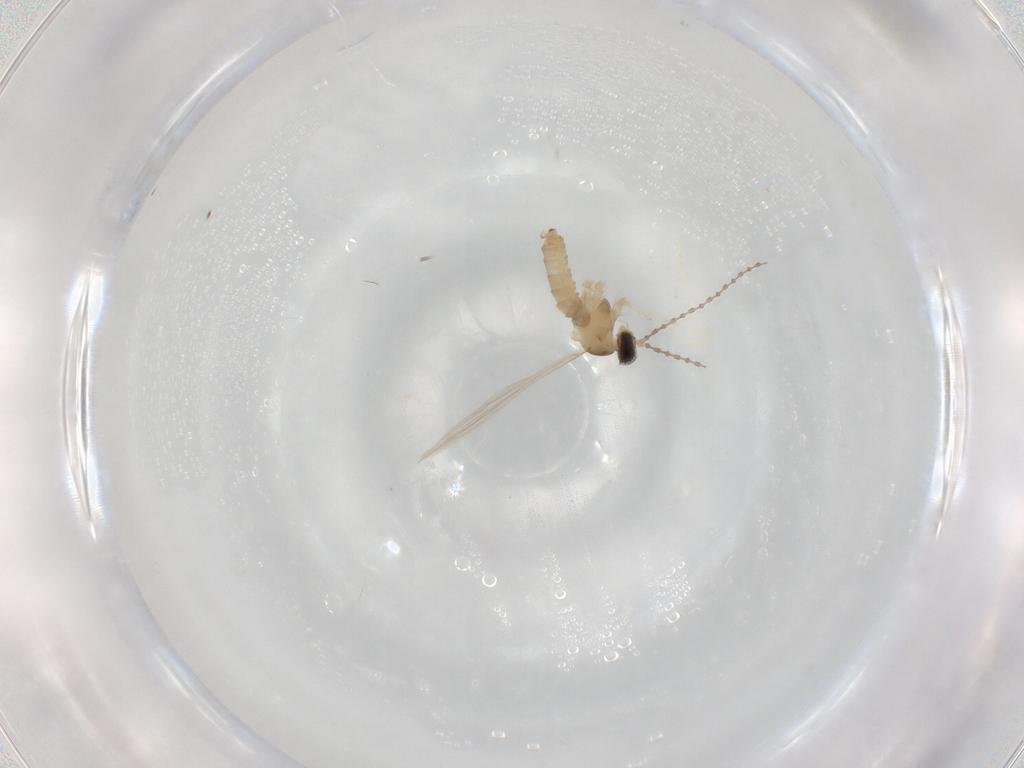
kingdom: Animalia
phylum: Arthropoda
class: Insecta
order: Diptera
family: Cecidomyiidae
